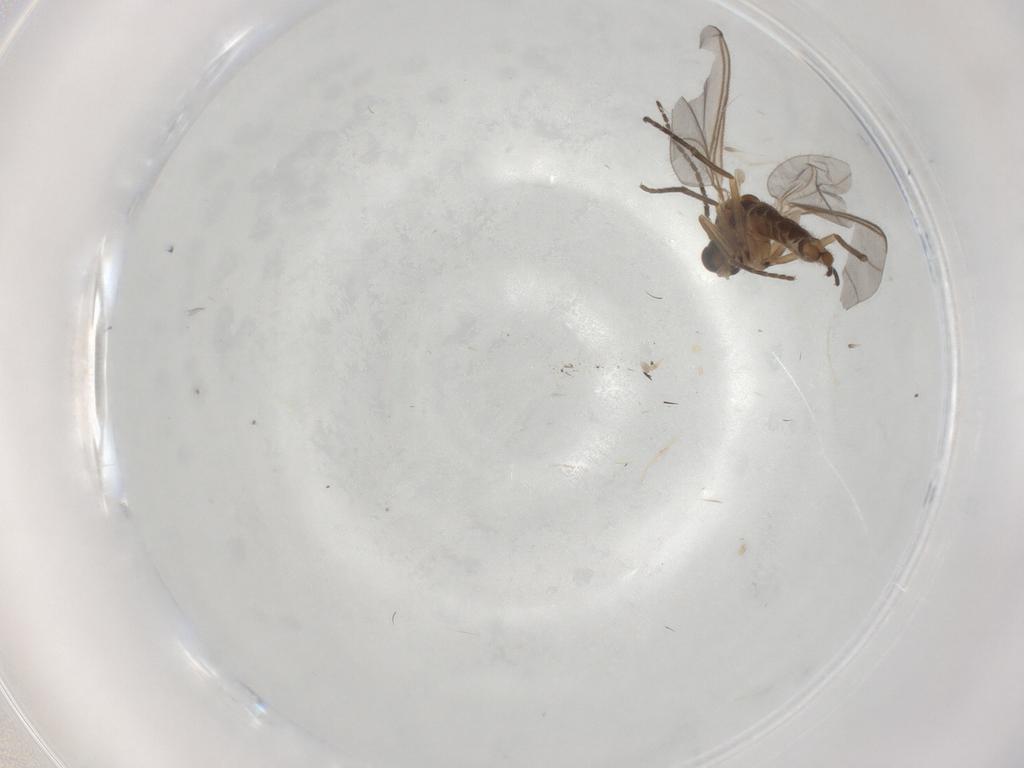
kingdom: Animalia
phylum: Arthropoda
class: Insecta
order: Diptera
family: Sciaridae
